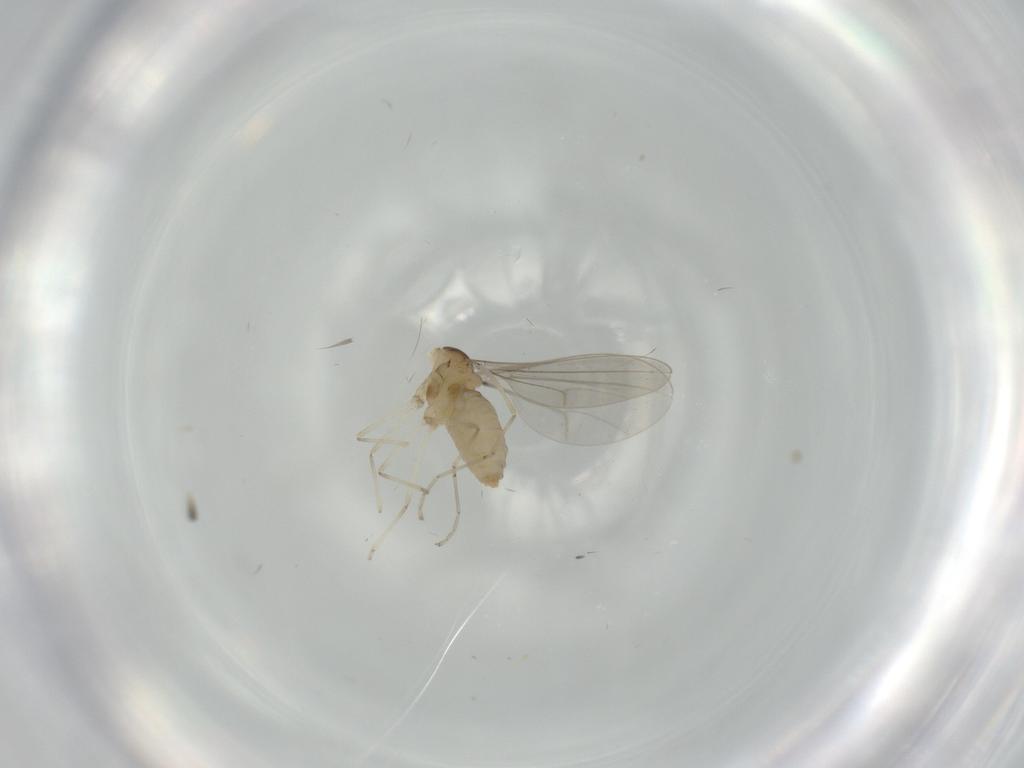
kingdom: Animalia
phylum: Arthropoda
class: Insecta
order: Diptera
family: Cecidomyiidae
